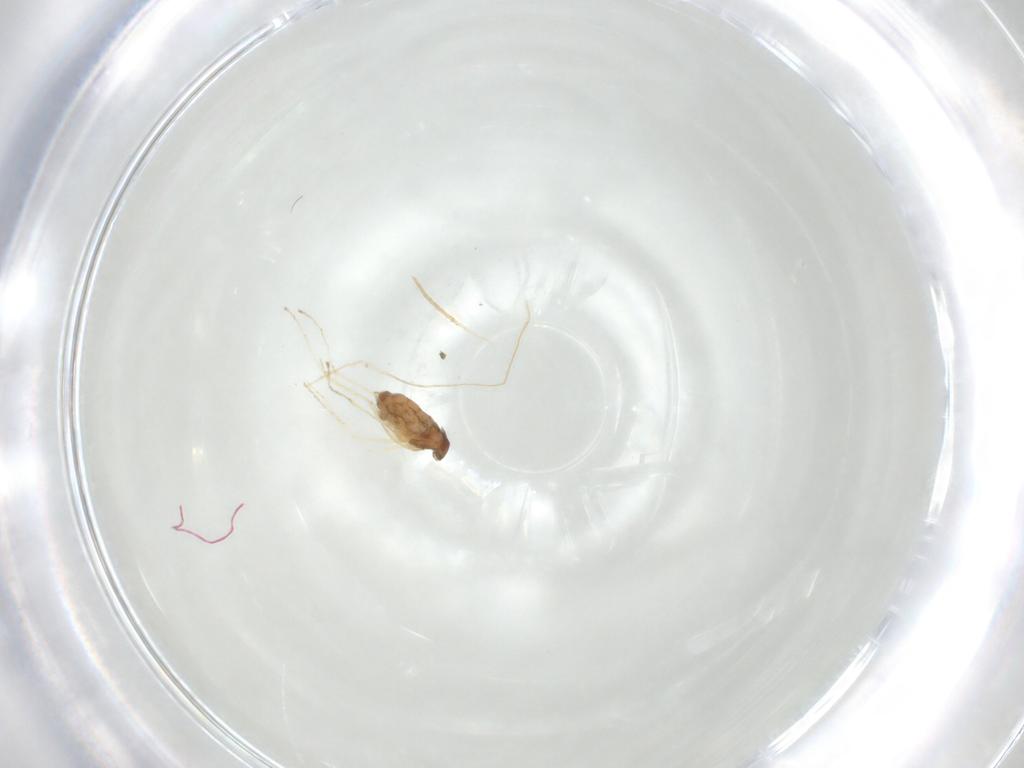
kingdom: Animalia
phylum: Arthropoda
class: Insecta
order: Diptera
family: Cecidomyiidae
